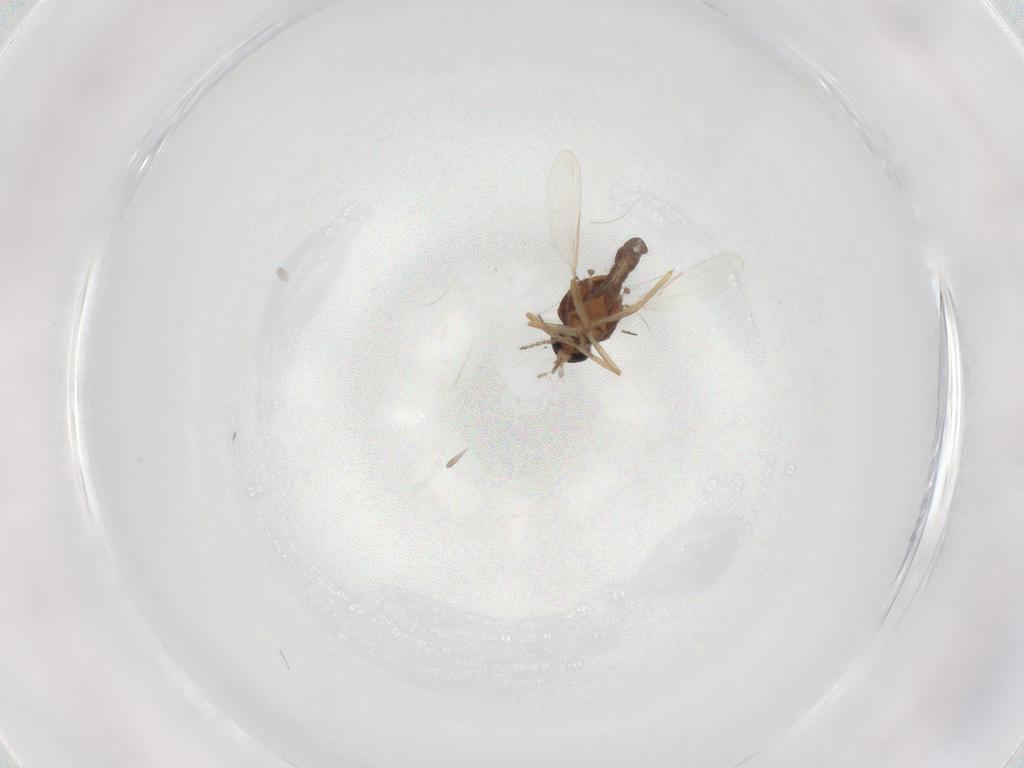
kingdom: Animalia
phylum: Arthropoda
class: Insecta
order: Diptera
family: Ceratopogonidae
